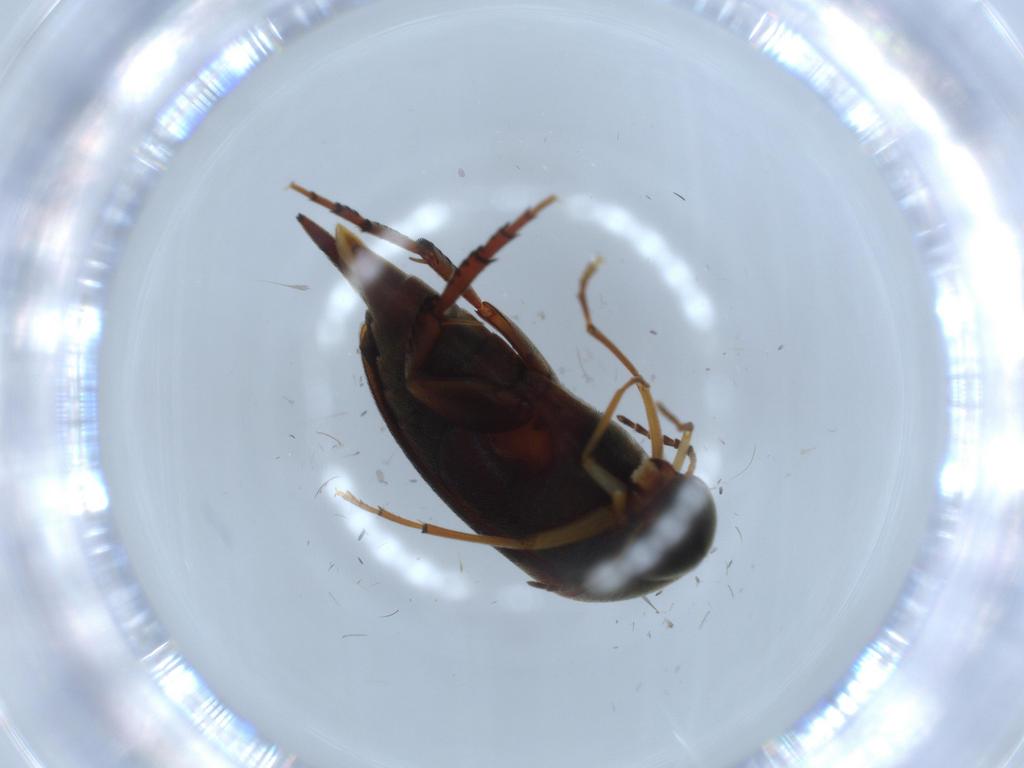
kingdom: Animalia
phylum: Arthropoda
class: Insecta
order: Coleoptera
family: Mordellidae
